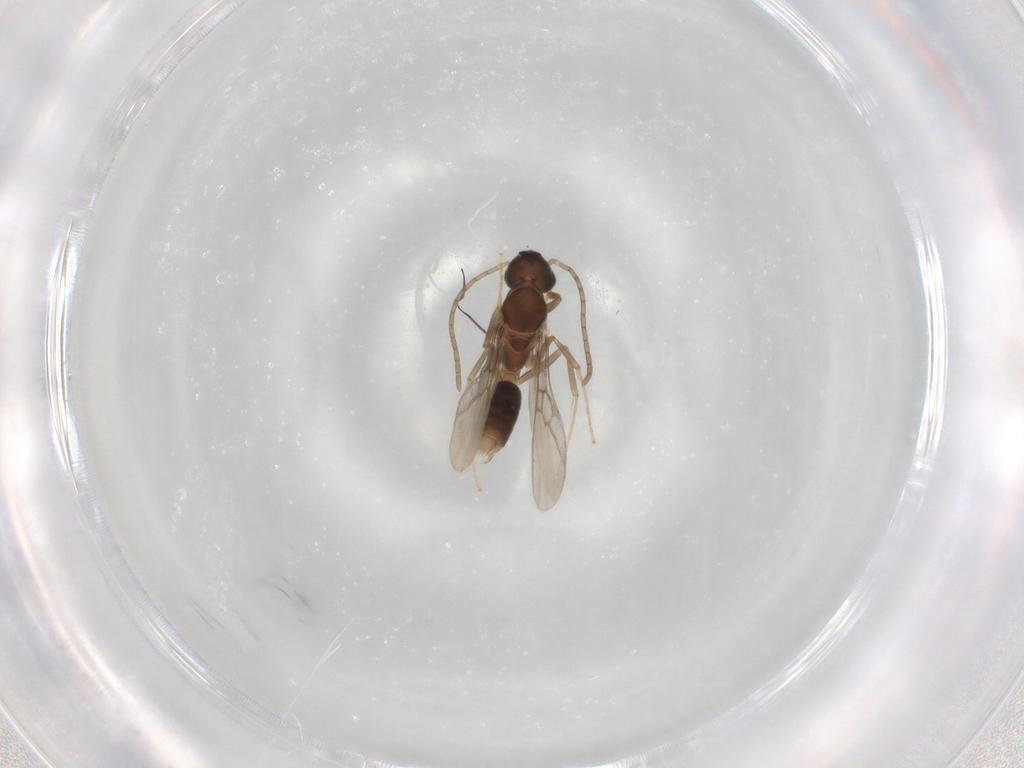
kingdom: Animalia
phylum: Arthropoda
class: Insecta
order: Hymenoptera
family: Formicidae
